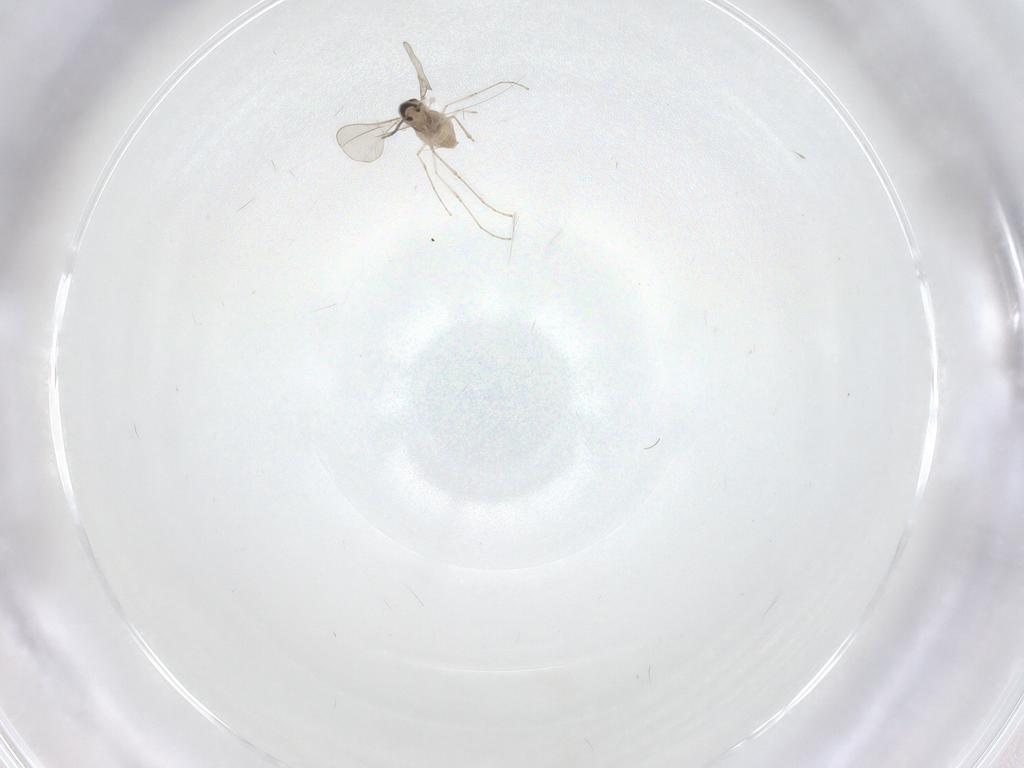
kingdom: Animalia
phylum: Arthropoda
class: Insecta
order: Diptera
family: Cecidomyiidae
